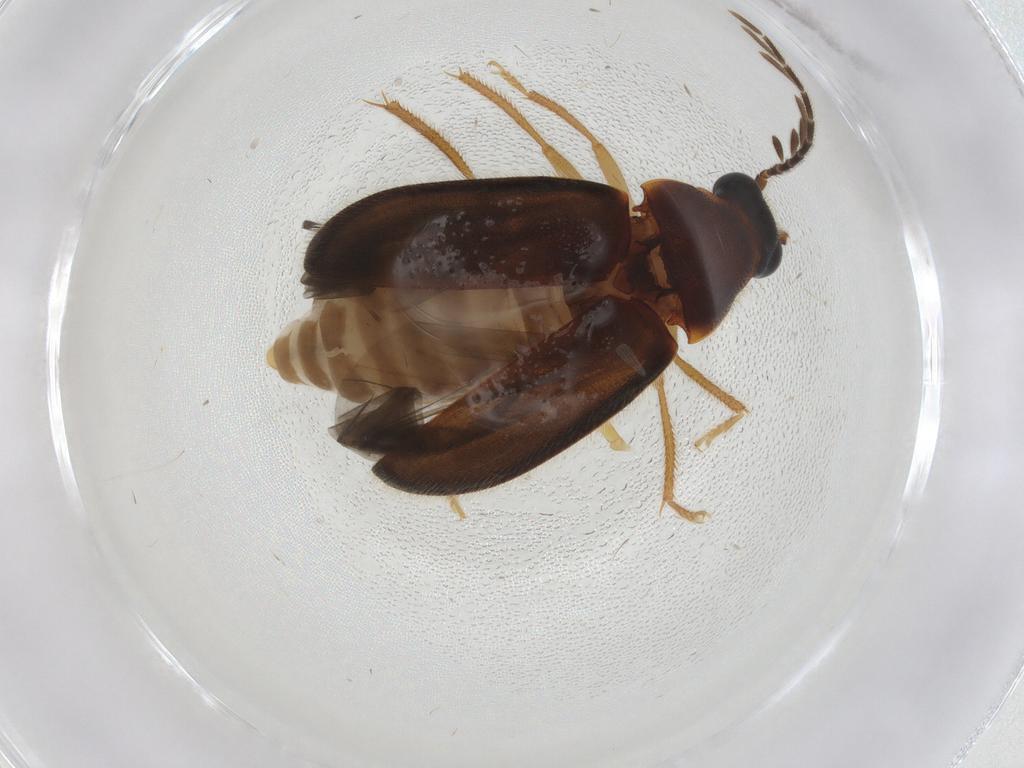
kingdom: Animalia
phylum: Arthropoda
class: Insecta
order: Coleoptera
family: Ptilodactylidae
